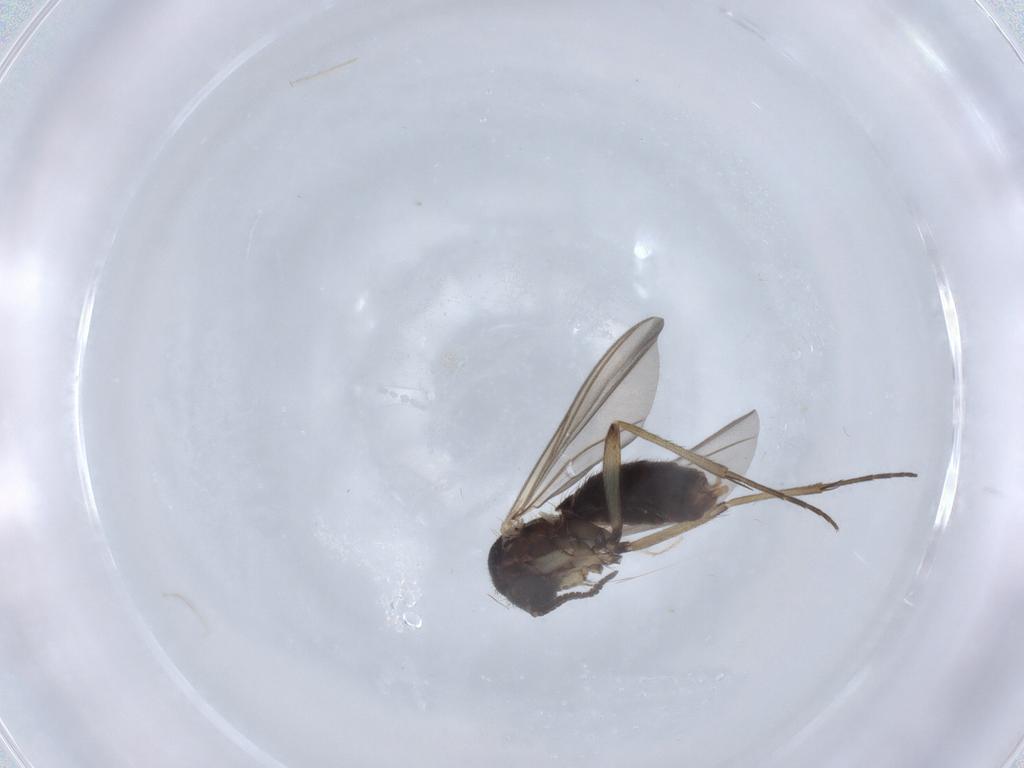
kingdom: Animalia
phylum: Arthropoda
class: Insecta
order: Diptera
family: Mycetophilidae
